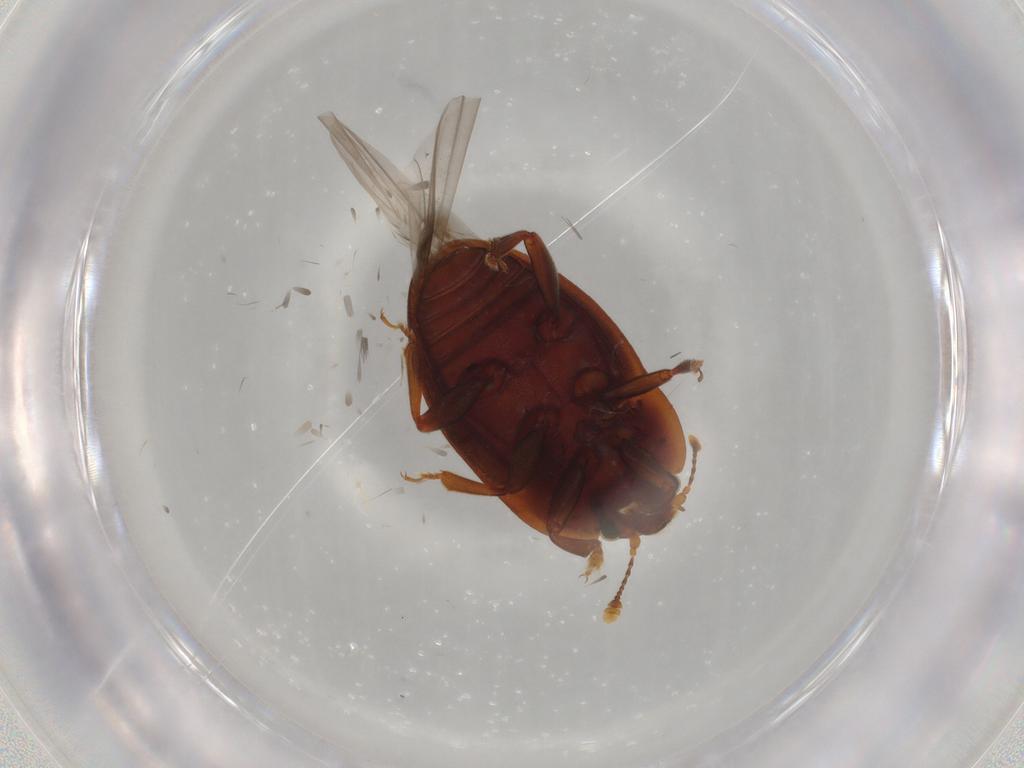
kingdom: Animalia
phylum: Arthropoda
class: Insecta
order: Coleoptera
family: Nitidulidae
